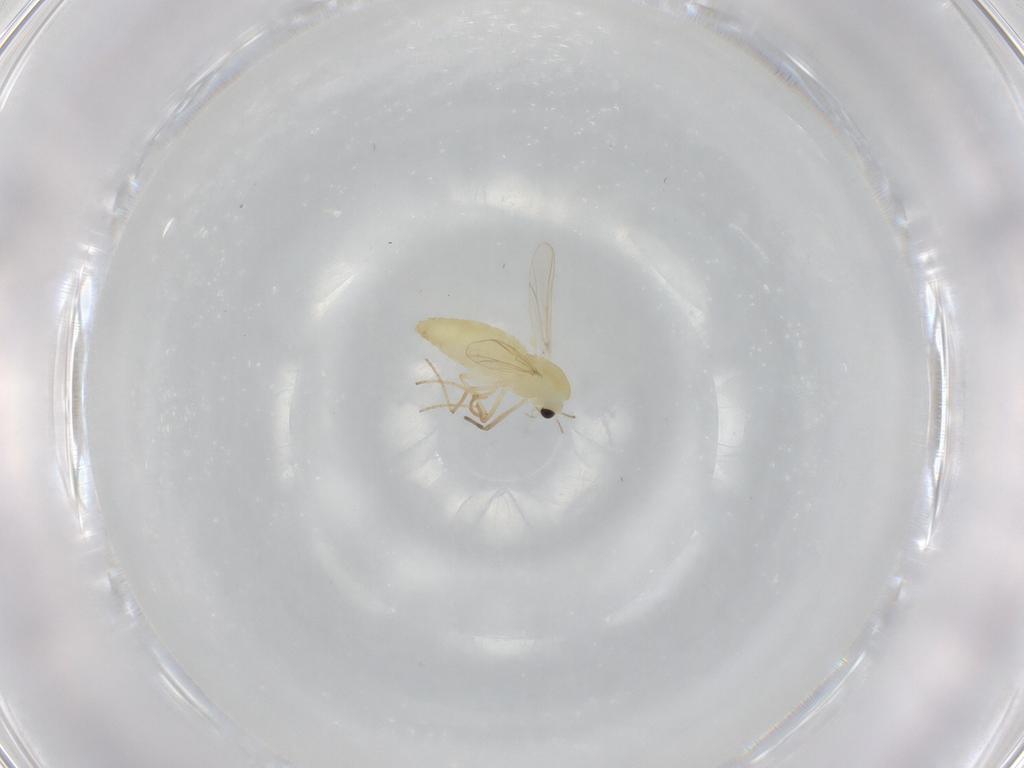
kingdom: Animalia
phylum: Arthropoda
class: Insecta
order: Diptera
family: Chironomidae
